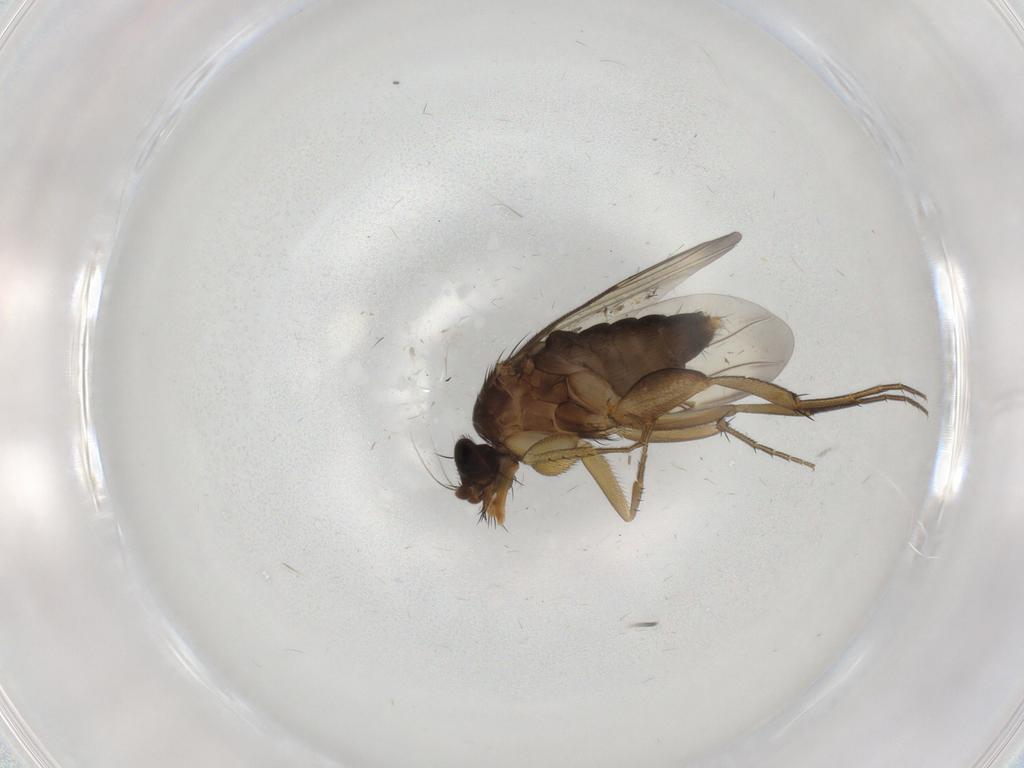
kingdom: Animalia
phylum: Arthropoda
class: Insecta
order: Diptera
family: Phoridae
